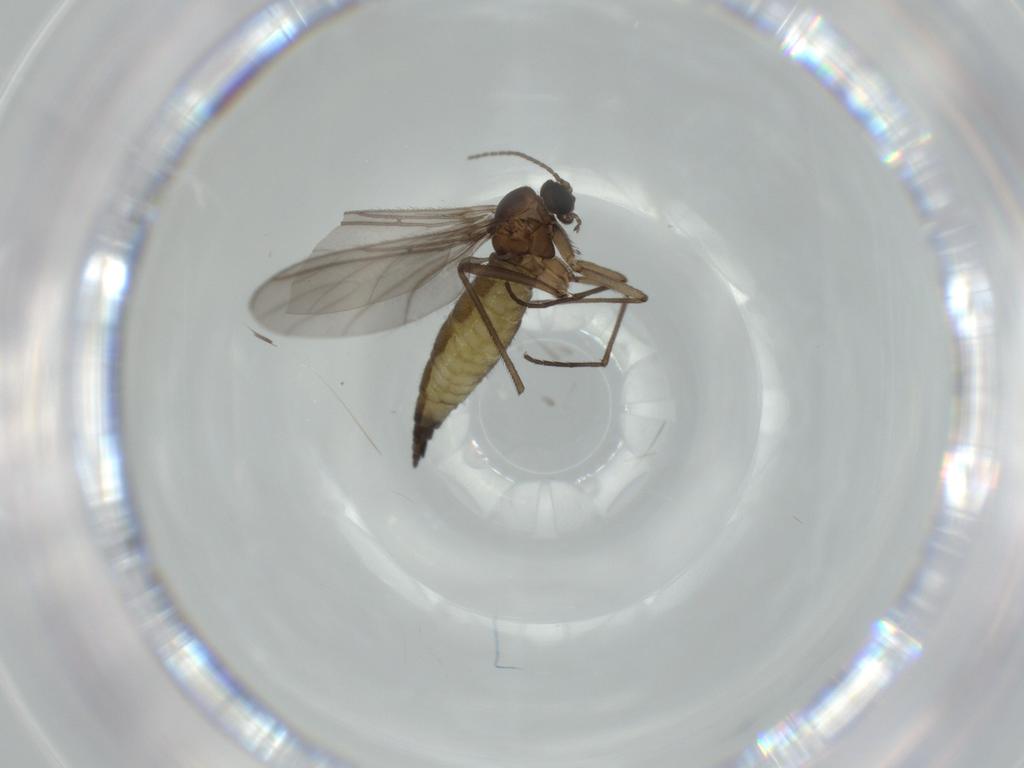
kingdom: Animalia
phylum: Arthropoda
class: Insecta
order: Diptera
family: Sciaridae
